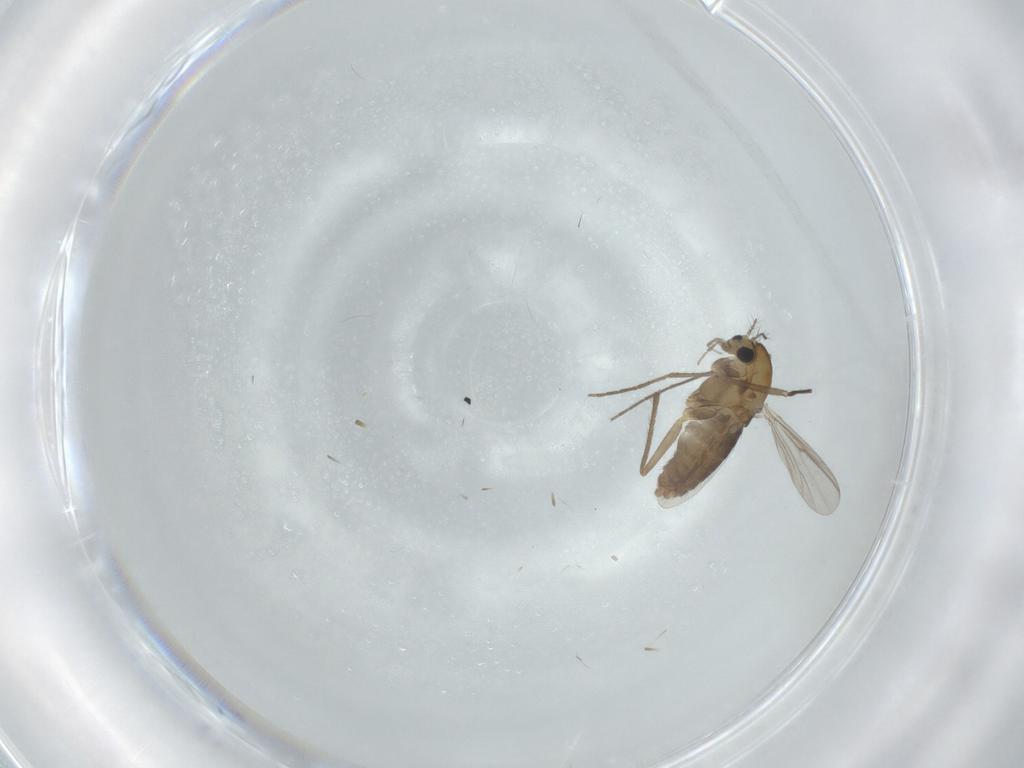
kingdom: Animalia
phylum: Arthropoda
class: Insecta
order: Diptera
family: Chironomidae
